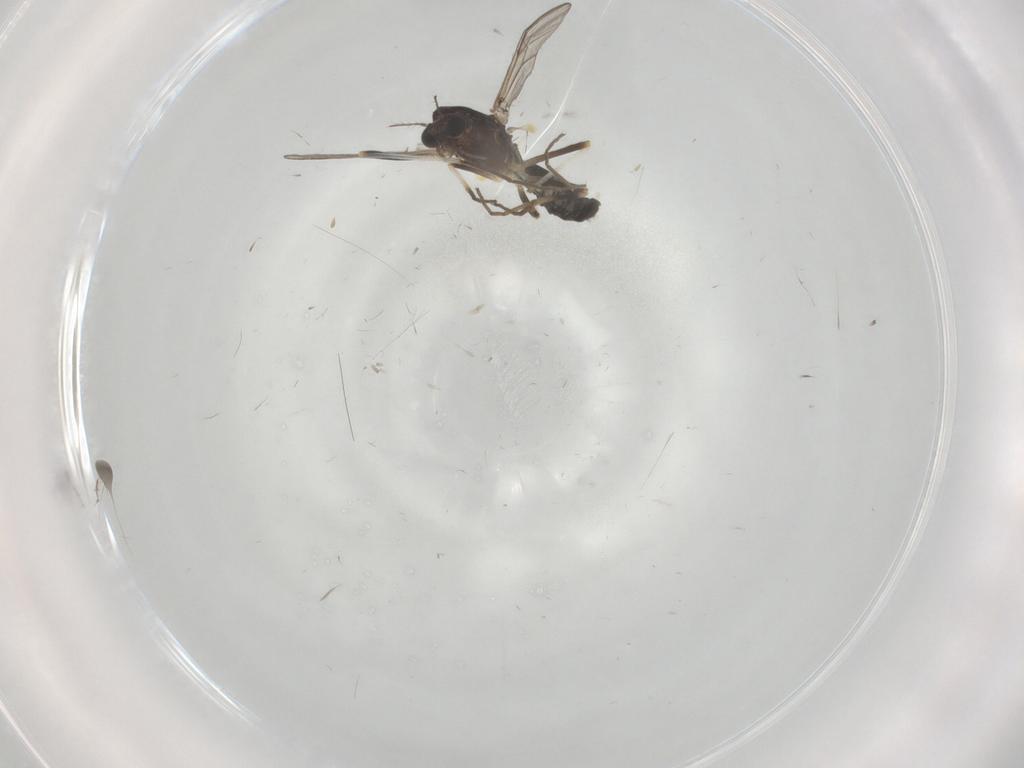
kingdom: Animalia
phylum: Arthropoda
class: Insecta
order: Diptera
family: Chironomidae
